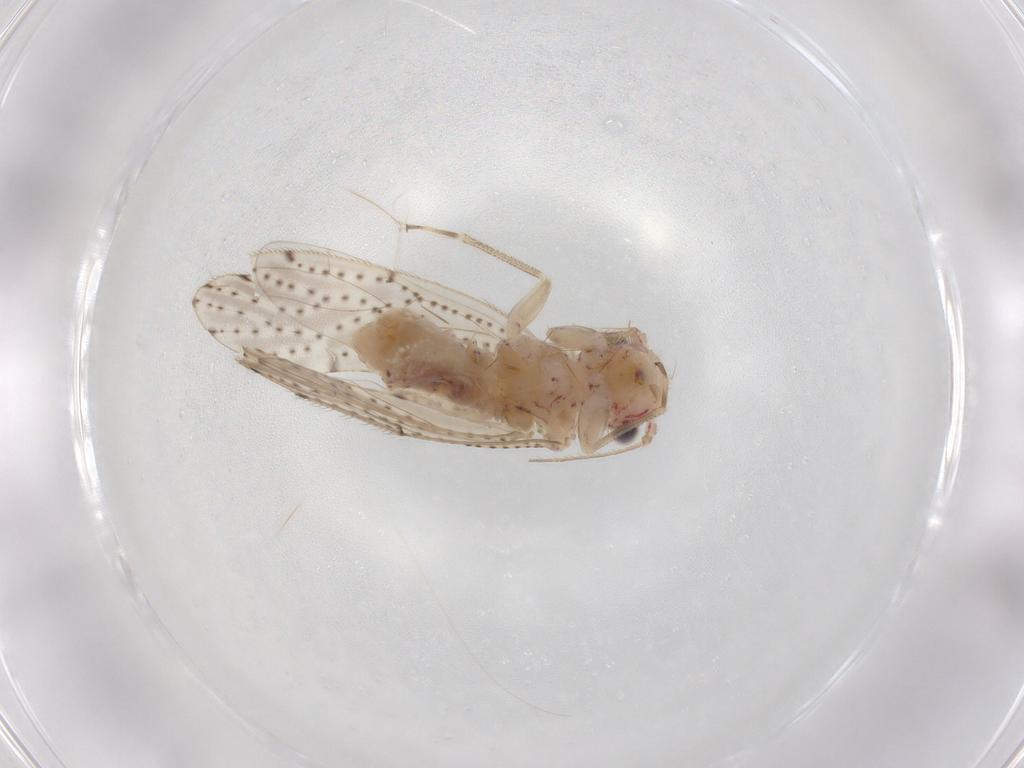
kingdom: Animalia
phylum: Arthropoda
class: Insecta
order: Psocodea
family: Philotarsidae
